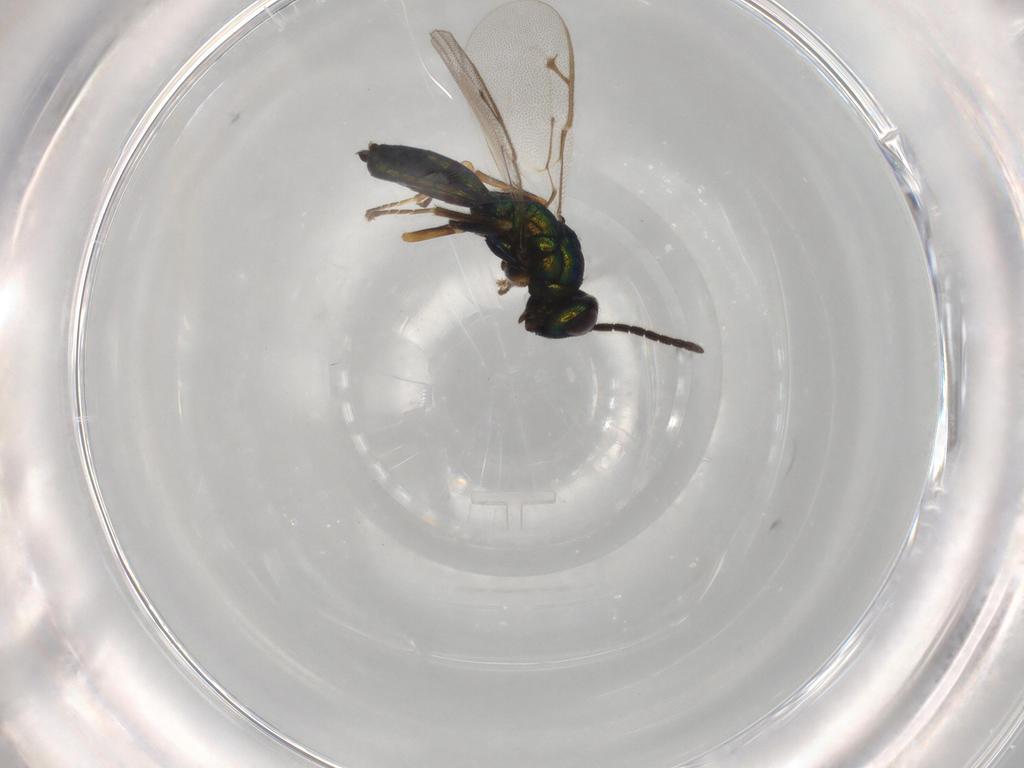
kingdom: Animalia
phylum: Arthropoda
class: Insecta
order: Hymenoptera
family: Pteromalidae
